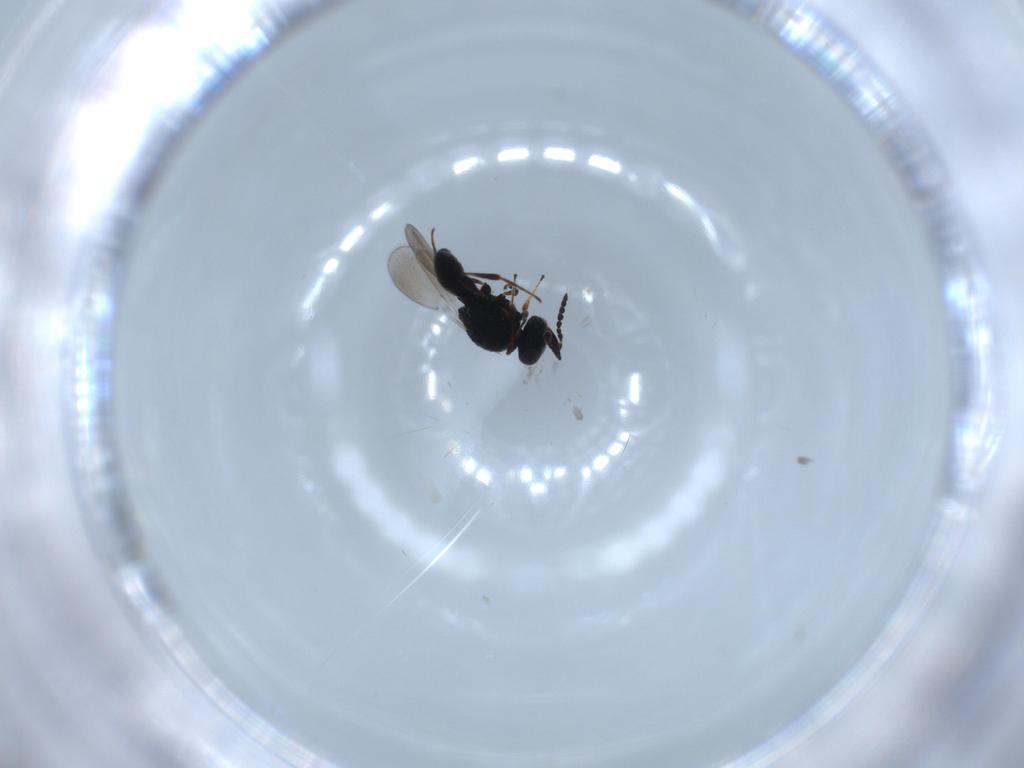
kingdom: Animalia
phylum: Arthropoda
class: Insecta
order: Hymenoptera
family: Platygastridae
